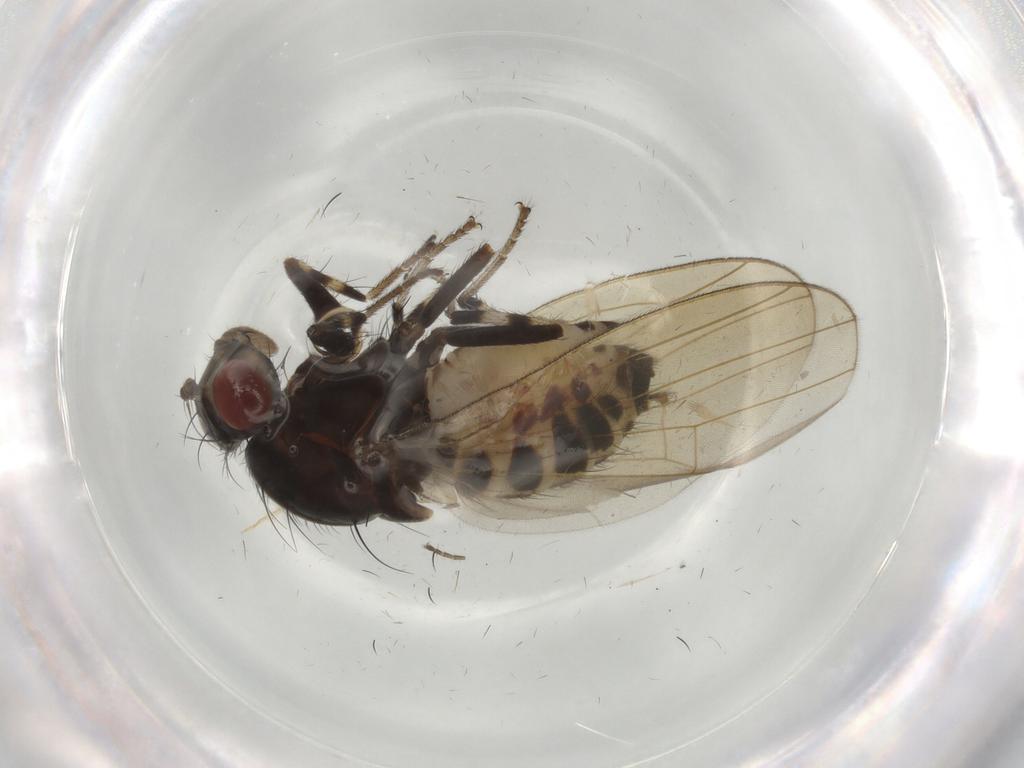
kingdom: Animalia
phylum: Arthropoda
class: Insecta
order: Diptera
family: Lauxaniidae
